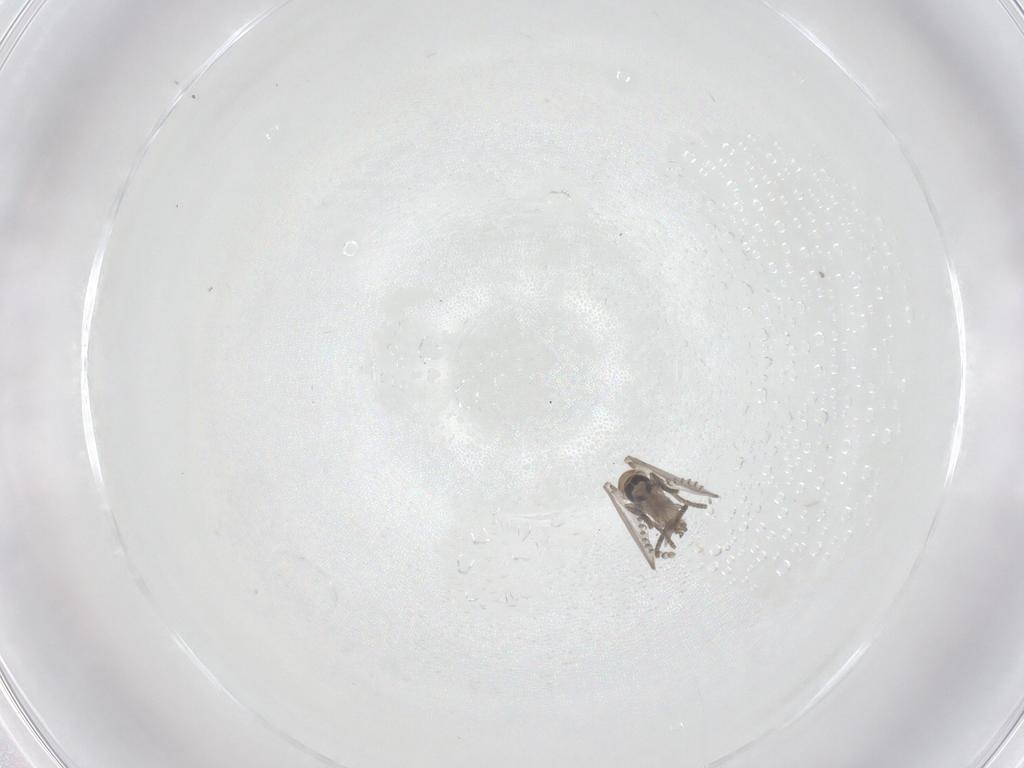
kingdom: Animalia
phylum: Arthropoda
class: Insecta
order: Diptera
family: Psychodidae
